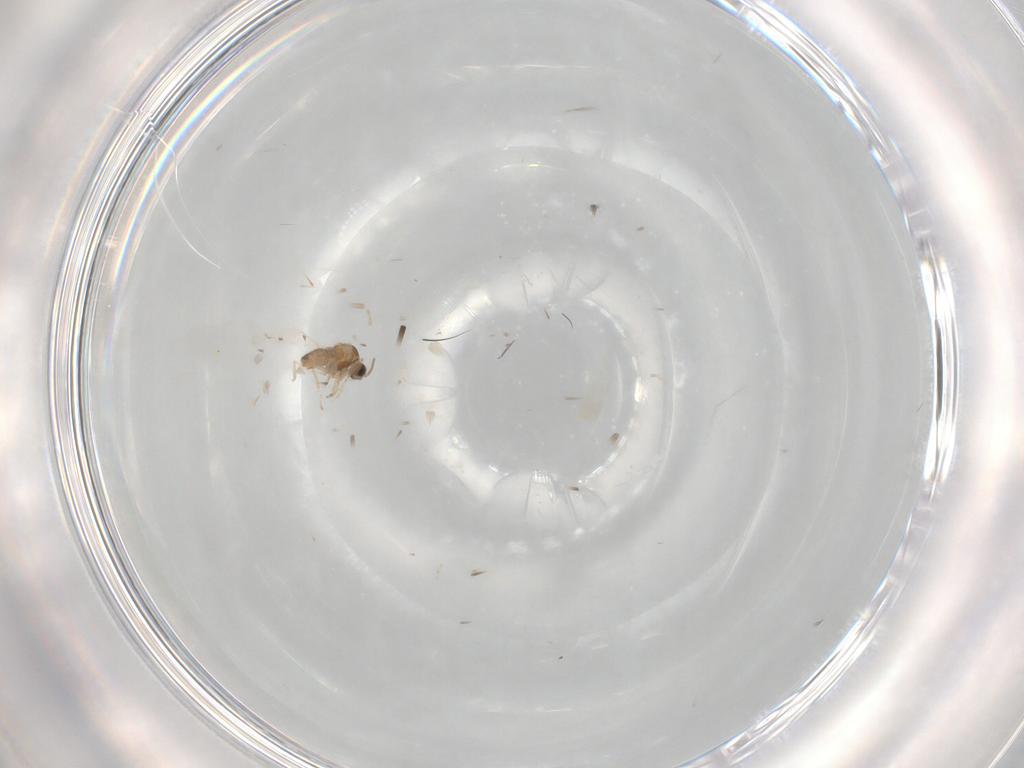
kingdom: Animalia
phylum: Arthropoda
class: Insecta
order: Diptera
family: Cecidomyiidae
